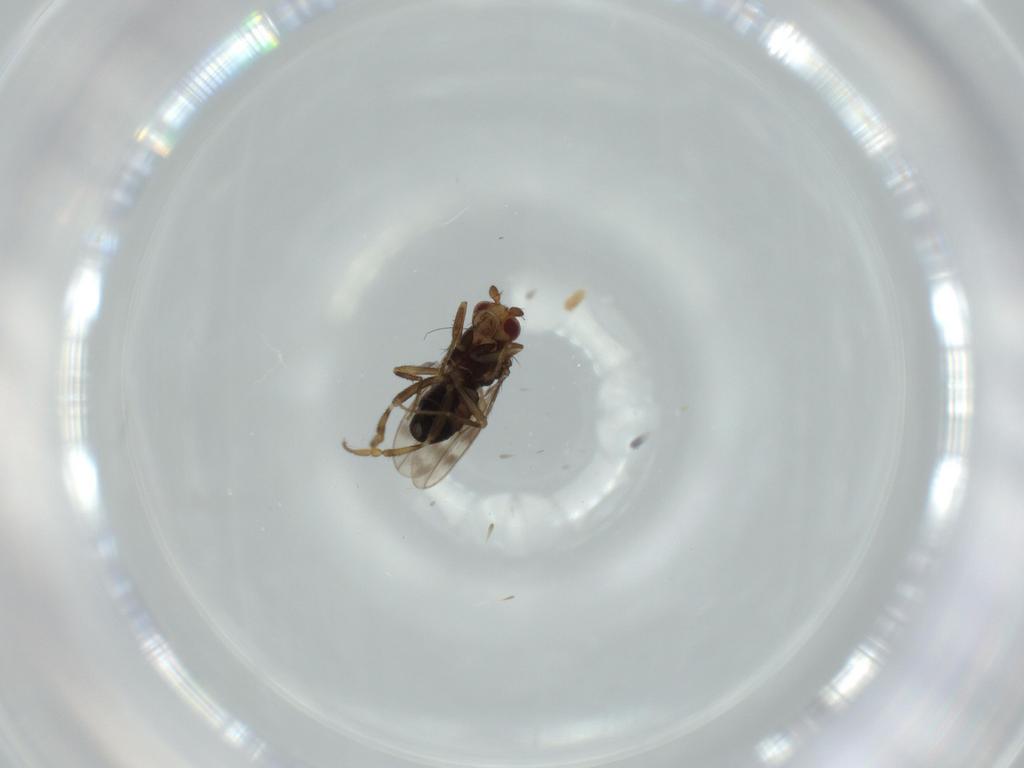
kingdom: Animalia
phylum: Arthropoda
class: Insecta
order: Diptera
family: Sphaeroceridae
